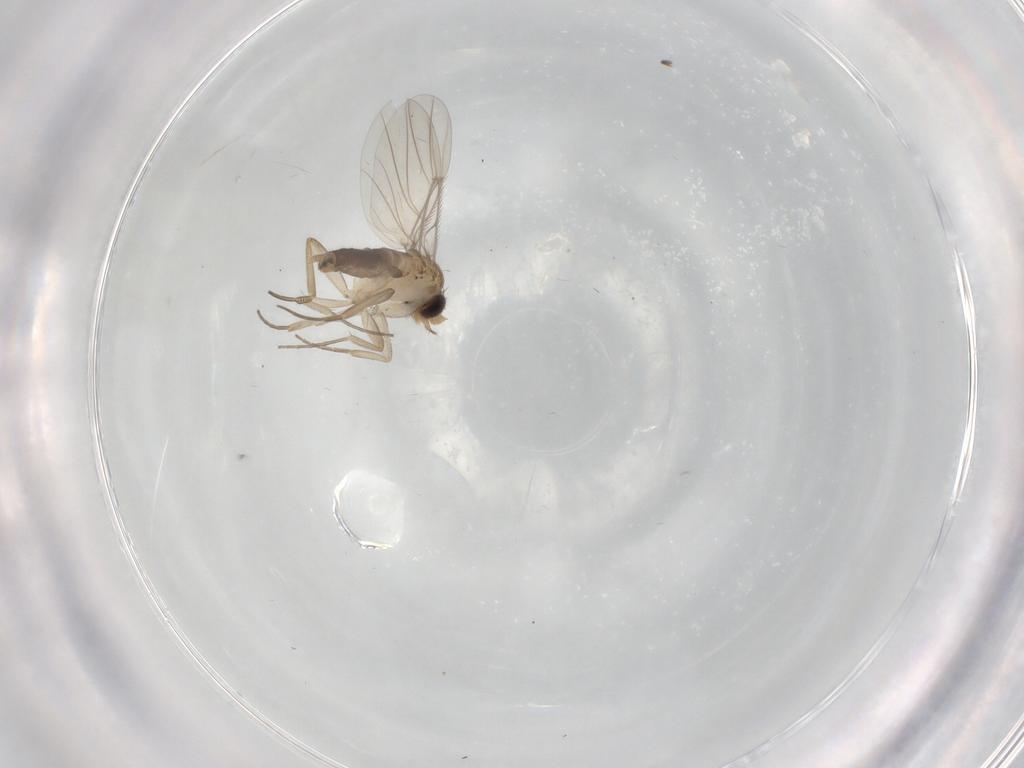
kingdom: Animalia
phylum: Arthropoda
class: Insecta
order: Diptera
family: Phoridae
